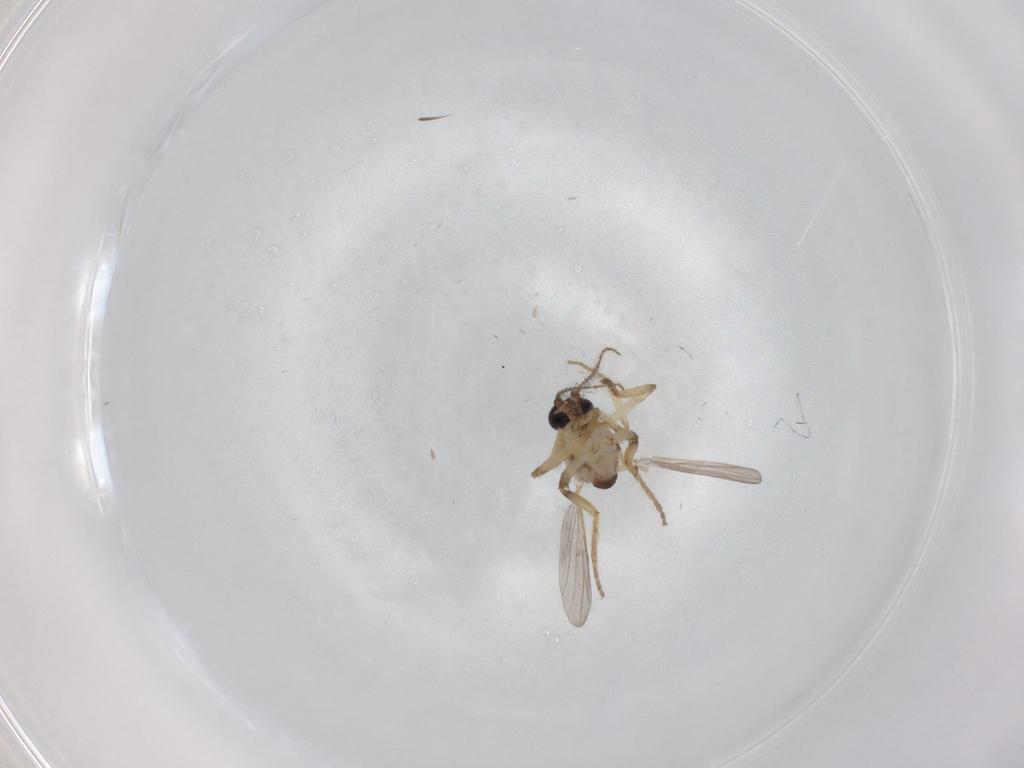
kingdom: Animalia
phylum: Arthropoda
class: Insecta
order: Diptera
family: Ceratopogonidae
